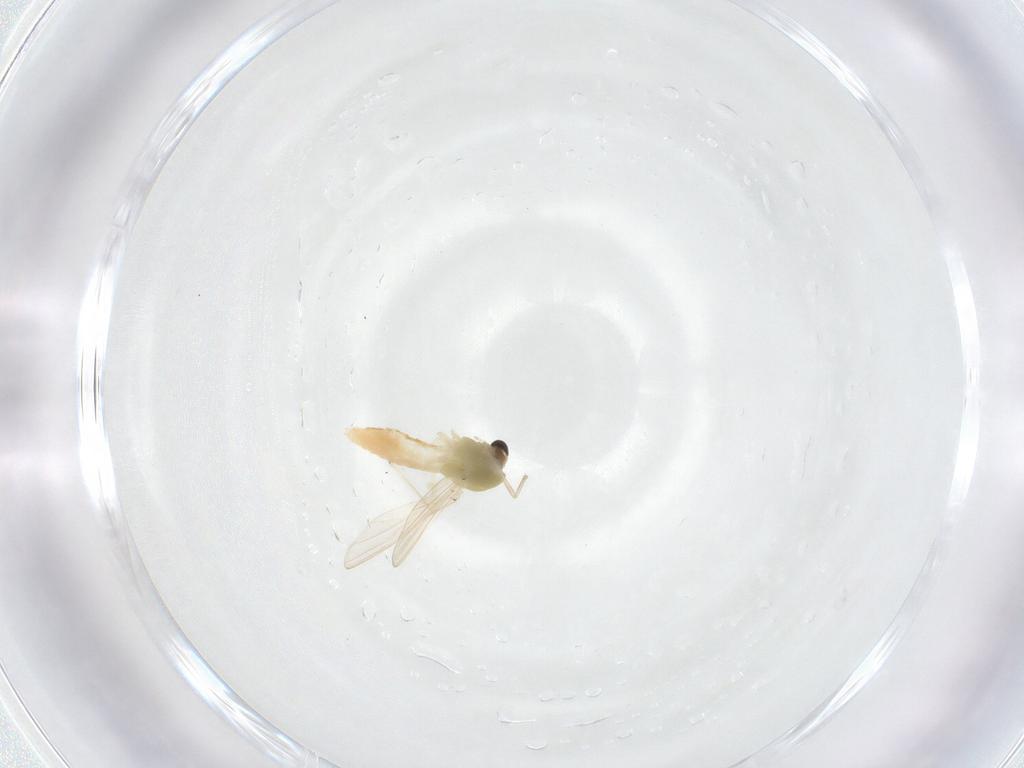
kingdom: Animalia
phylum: Arthropoda
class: Insecta
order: Diptera
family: Chironomidae
